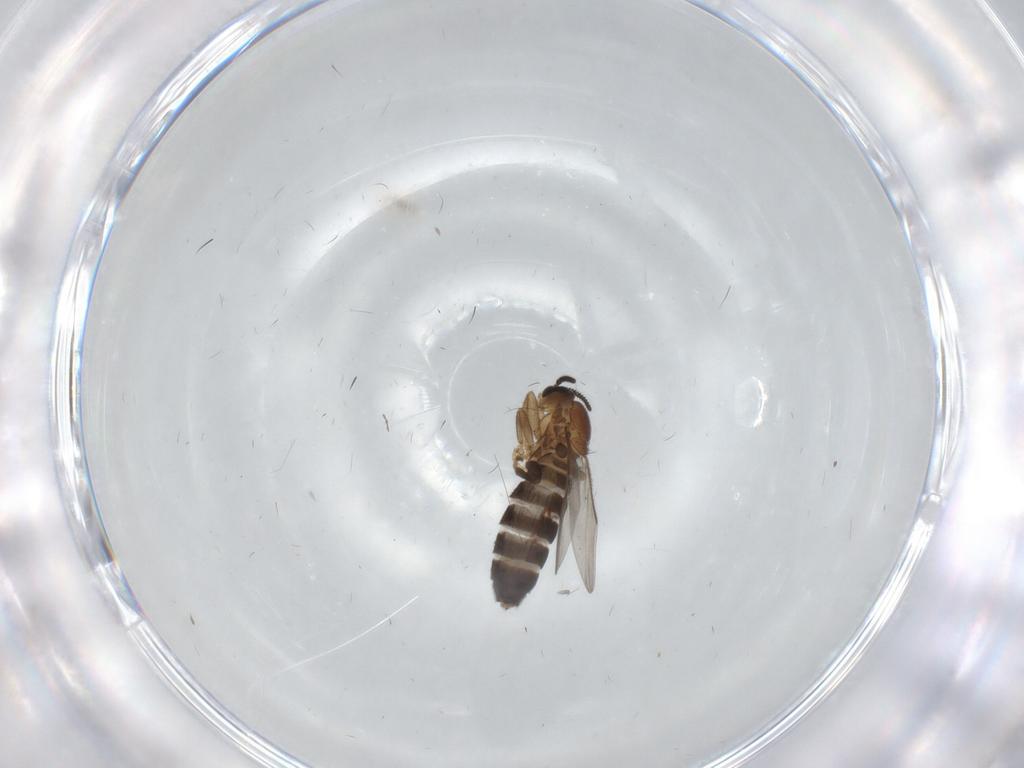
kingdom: Animalia
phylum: Arthropoda
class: Insecta
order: Diptera
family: Scatopsidae
